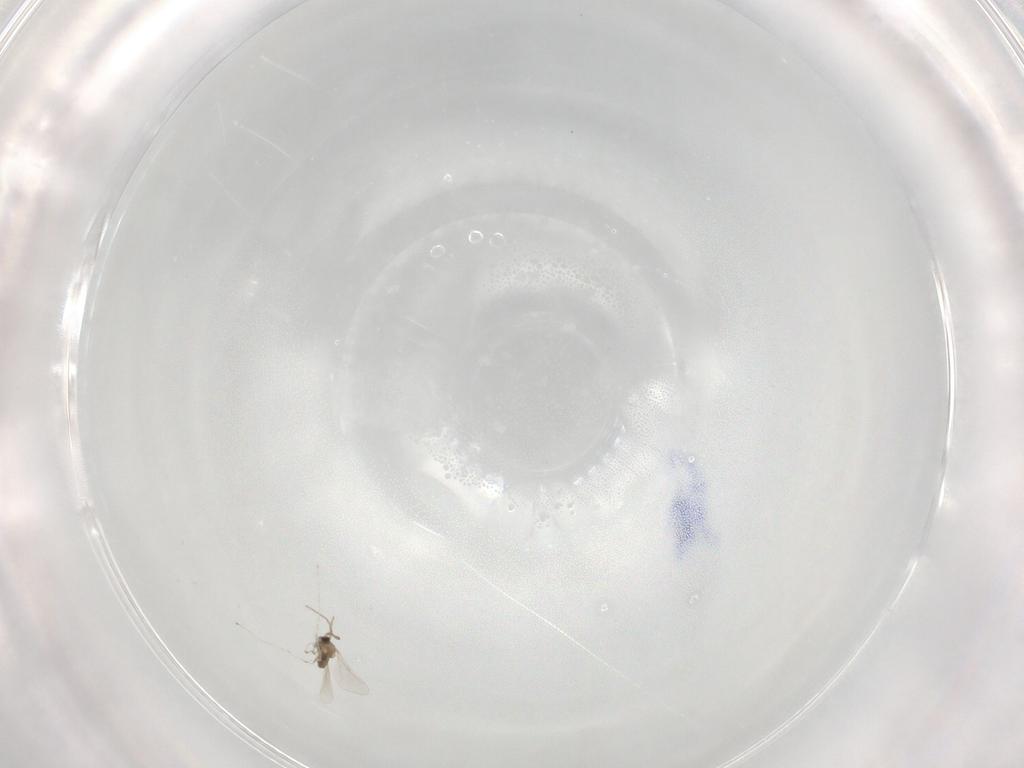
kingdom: Animalia
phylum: Arthropoda
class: Insecta
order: Diptera
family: Cecidomyiidae
